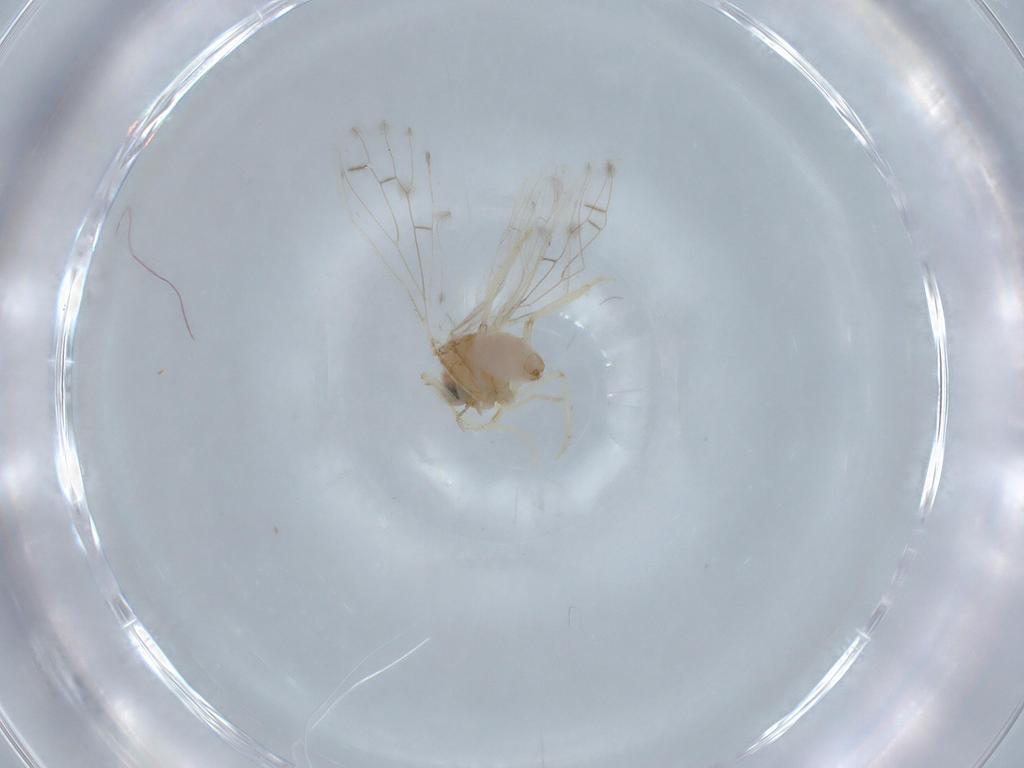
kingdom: Animalia
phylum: Arthropoda
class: Insecta
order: Neuroptera
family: Coniopterygidae
